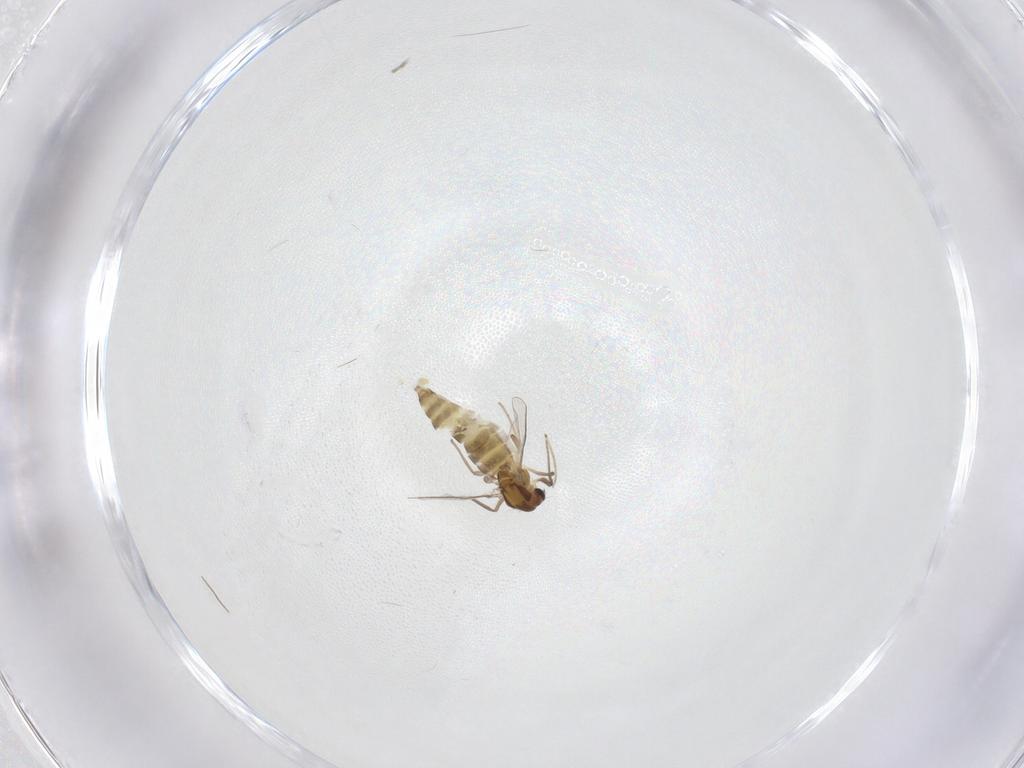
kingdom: Animalia
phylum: Arthropoda
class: Insecta
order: Diptera
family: Chironomidae
